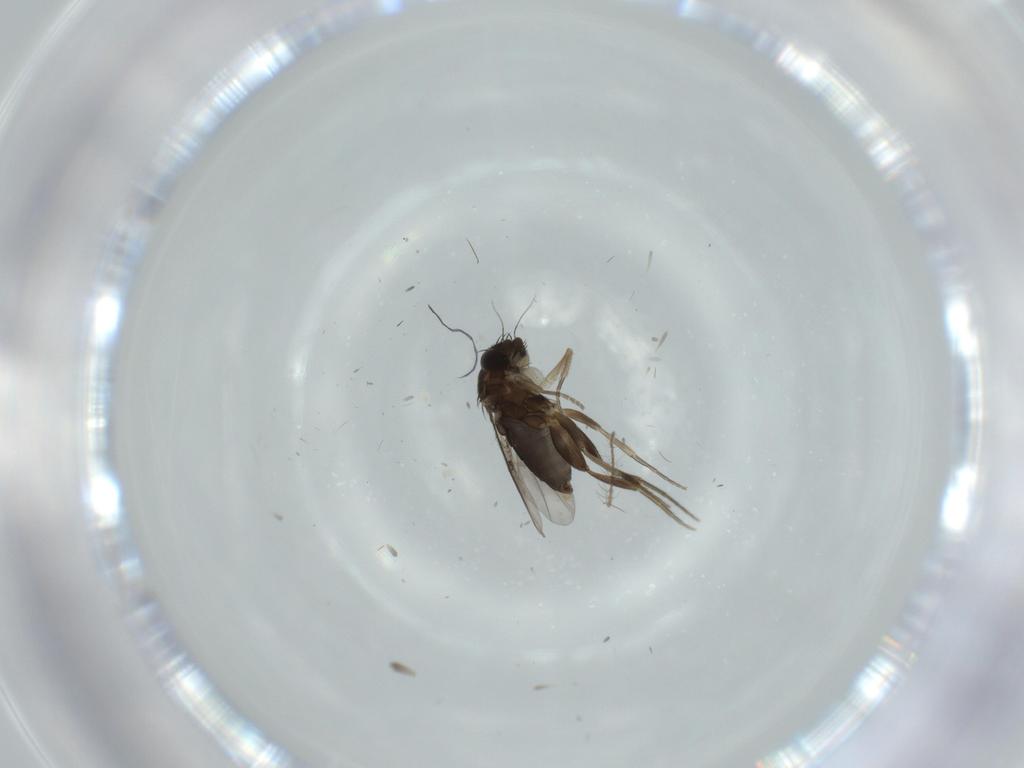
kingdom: Animalia
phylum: Arthropoda
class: Insecta
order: Diptera
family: Phoridae
